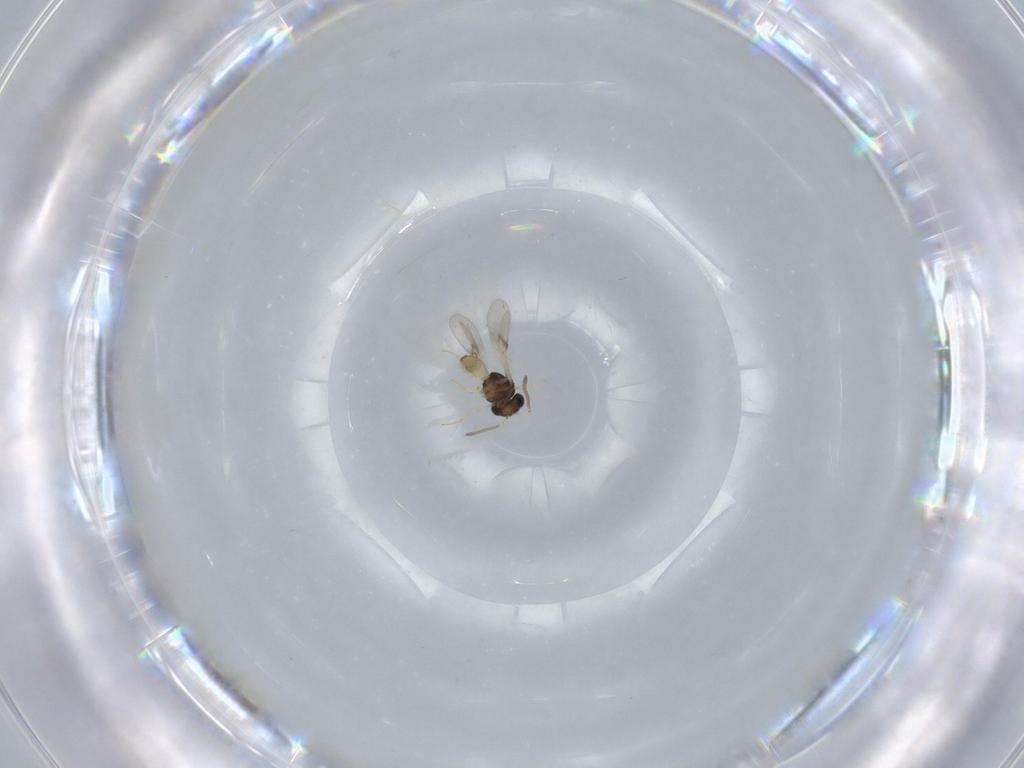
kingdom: Animalia
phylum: Arthropoda
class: Insecta
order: Hymenoptera
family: Scelionidae
